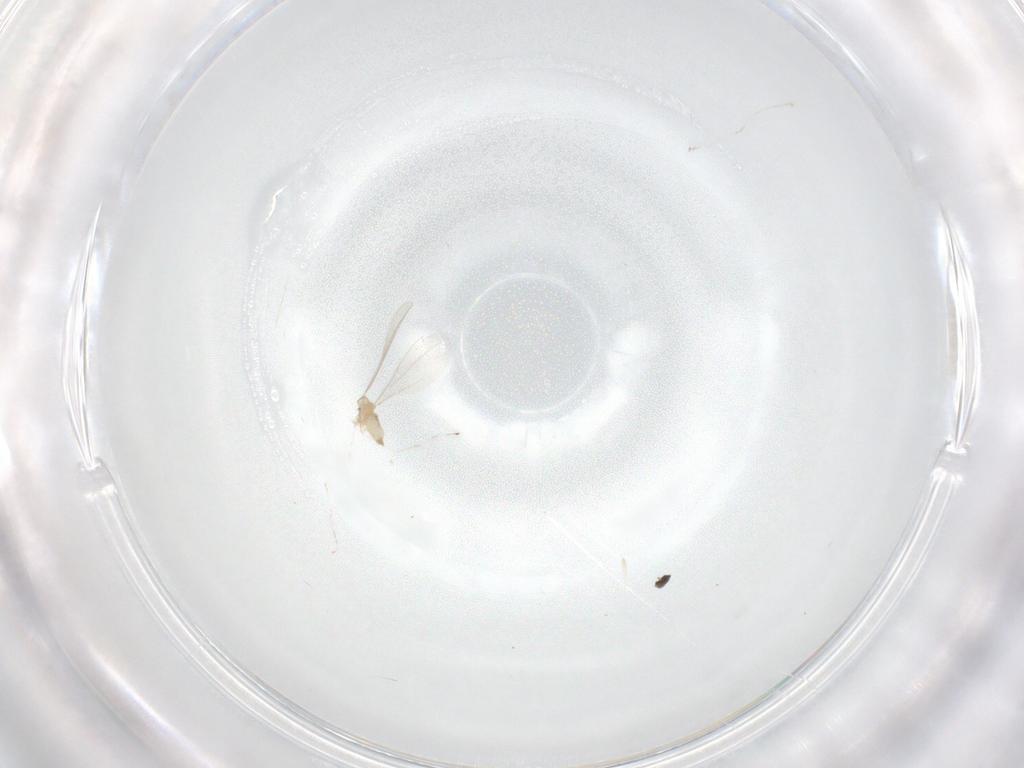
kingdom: Animalia
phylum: Arthropoda
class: Insecta
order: Diptera
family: Cecidomyiidae
